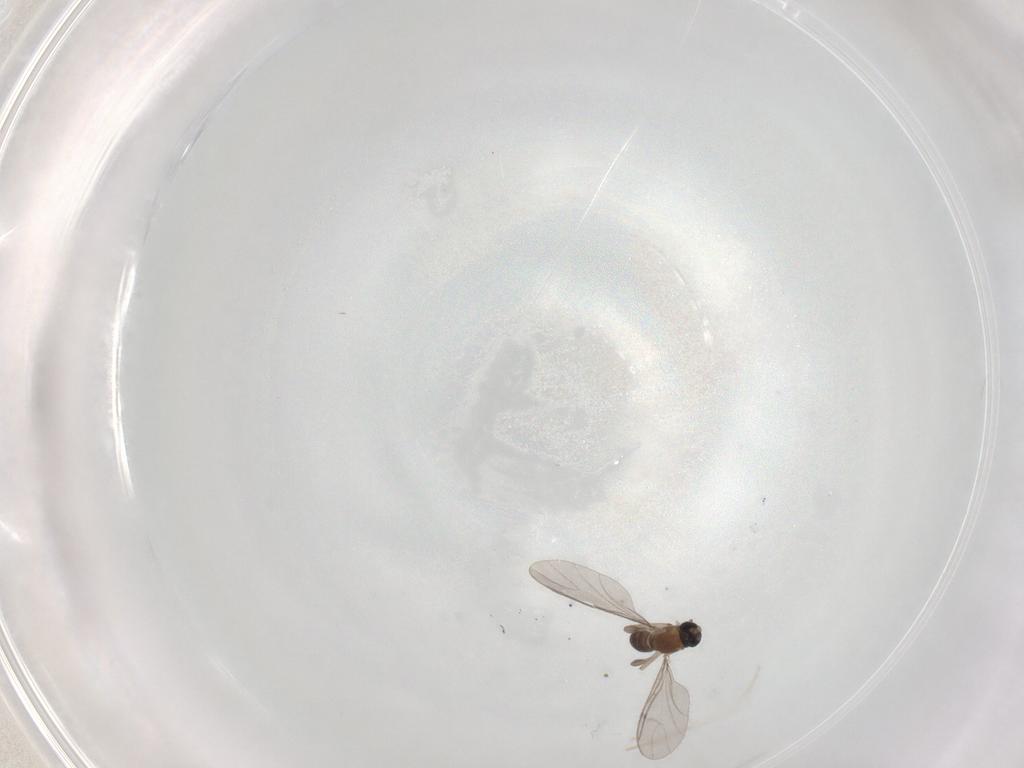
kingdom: Animalia
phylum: Arthropoda
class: Insecta
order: Diptera
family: Sciaridae
